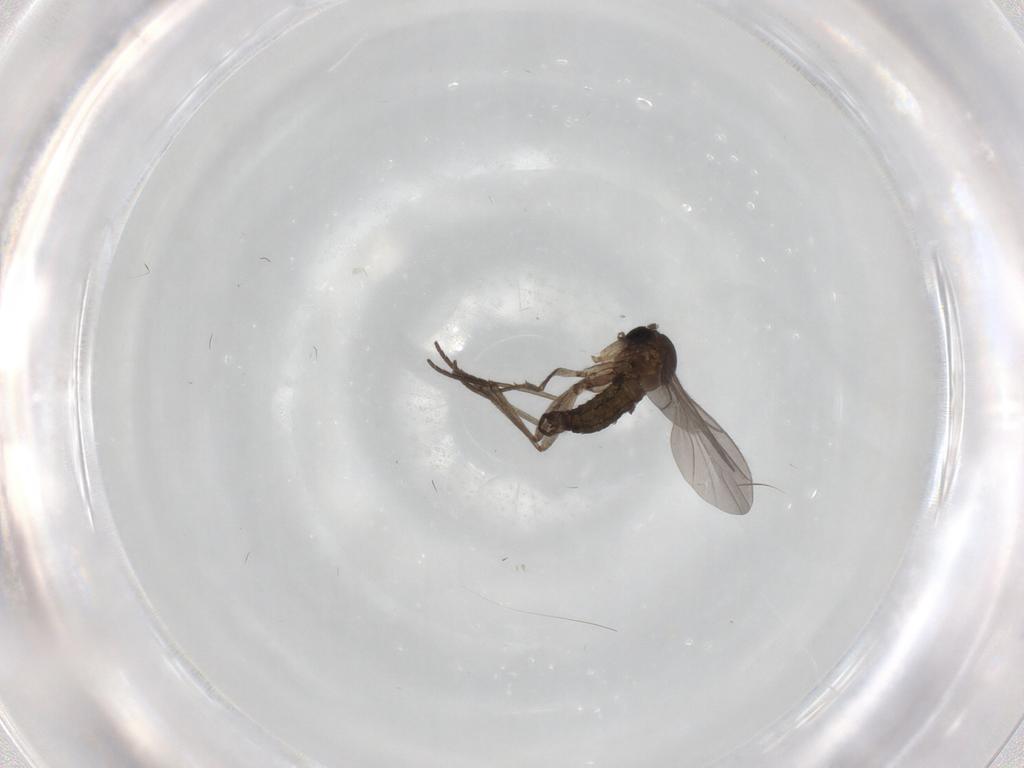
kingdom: Animalia
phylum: Arthropoda
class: Insecta
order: Diptera
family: Sciaridae
